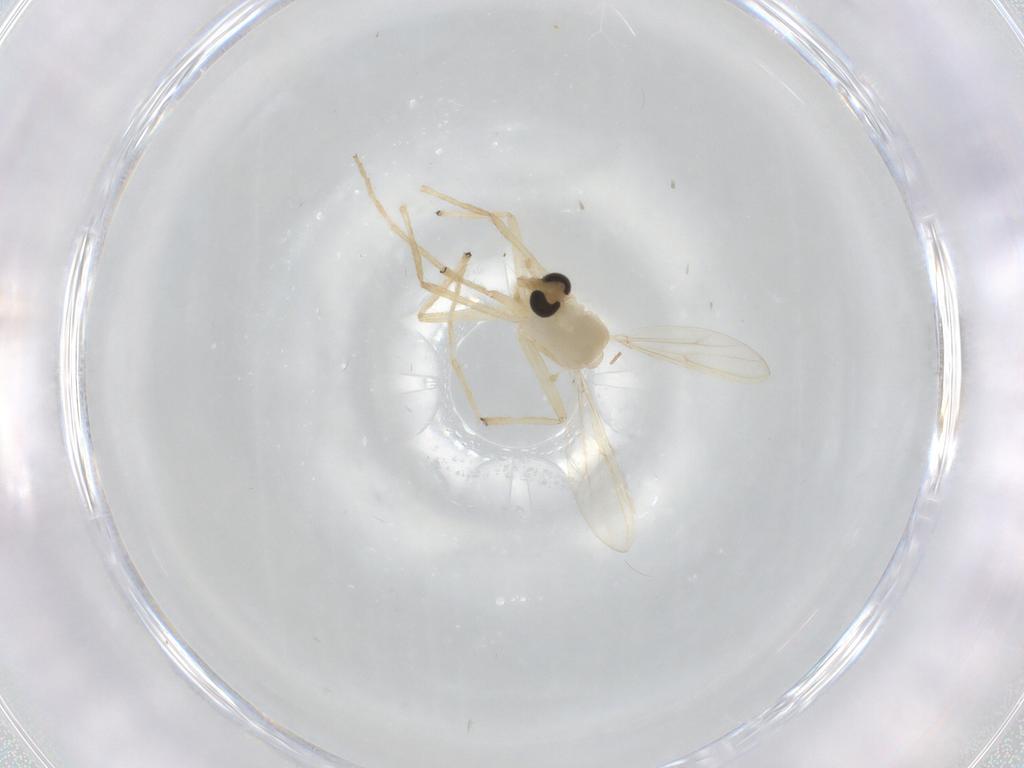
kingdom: Animalia
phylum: Arthropoda
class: Insecta
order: Diptera
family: Chironomidae
